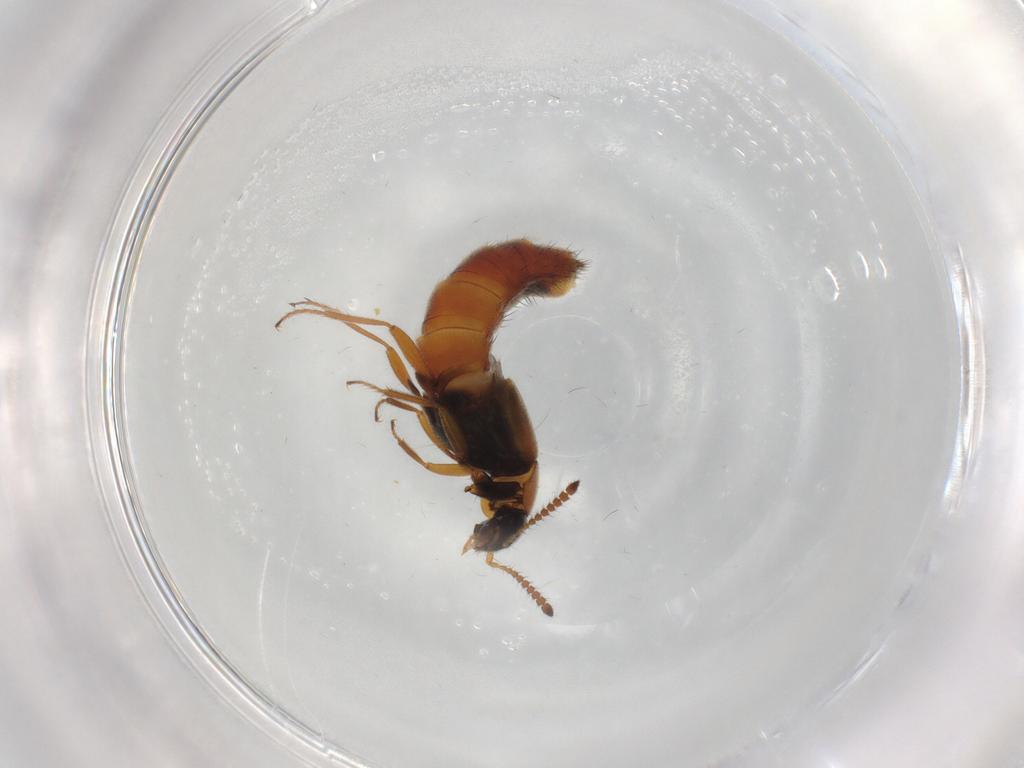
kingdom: Animalia
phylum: Arthropoda
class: Insecta
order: Coleoptera
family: Staphylinidae
